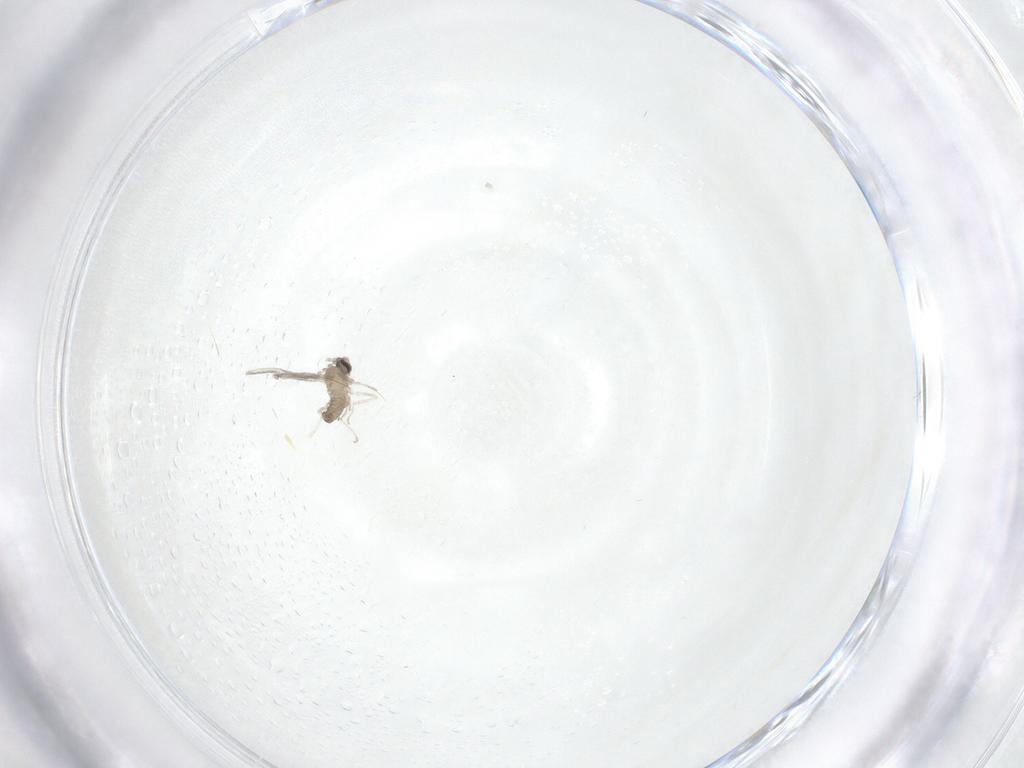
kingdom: Animalia
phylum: Arthropoda
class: Insecta
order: Diptera
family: Cecidomyiidae
